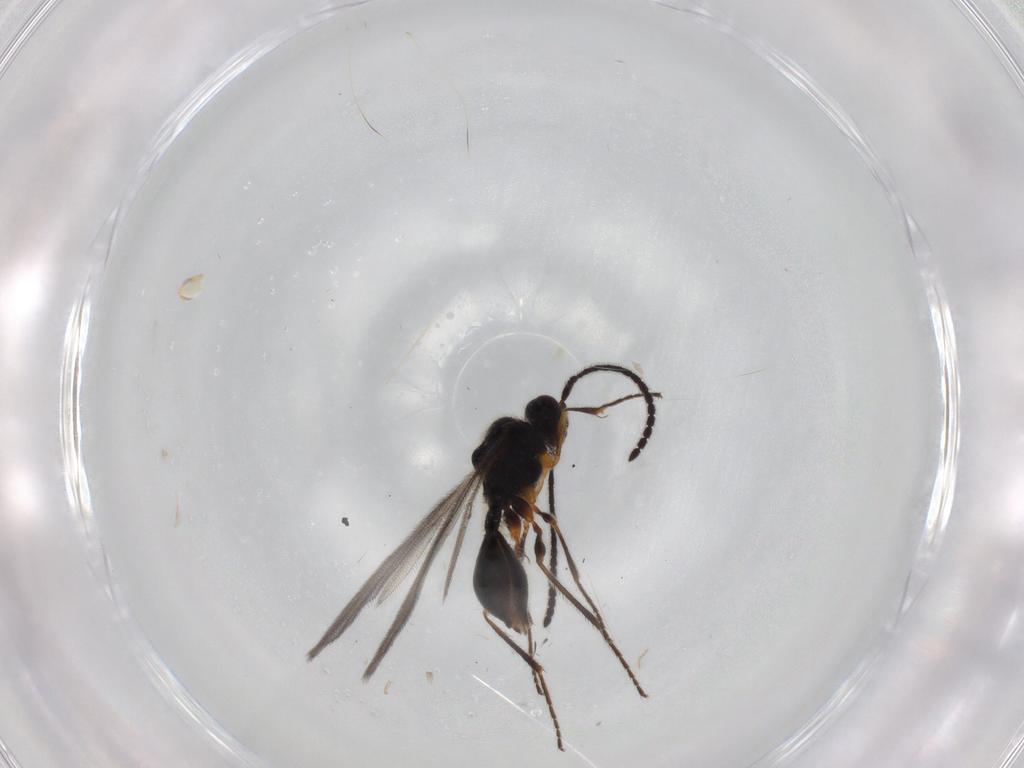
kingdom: Animalia
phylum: Arthropoda
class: Insecta
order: Hymenoptera
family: Diapriidae
